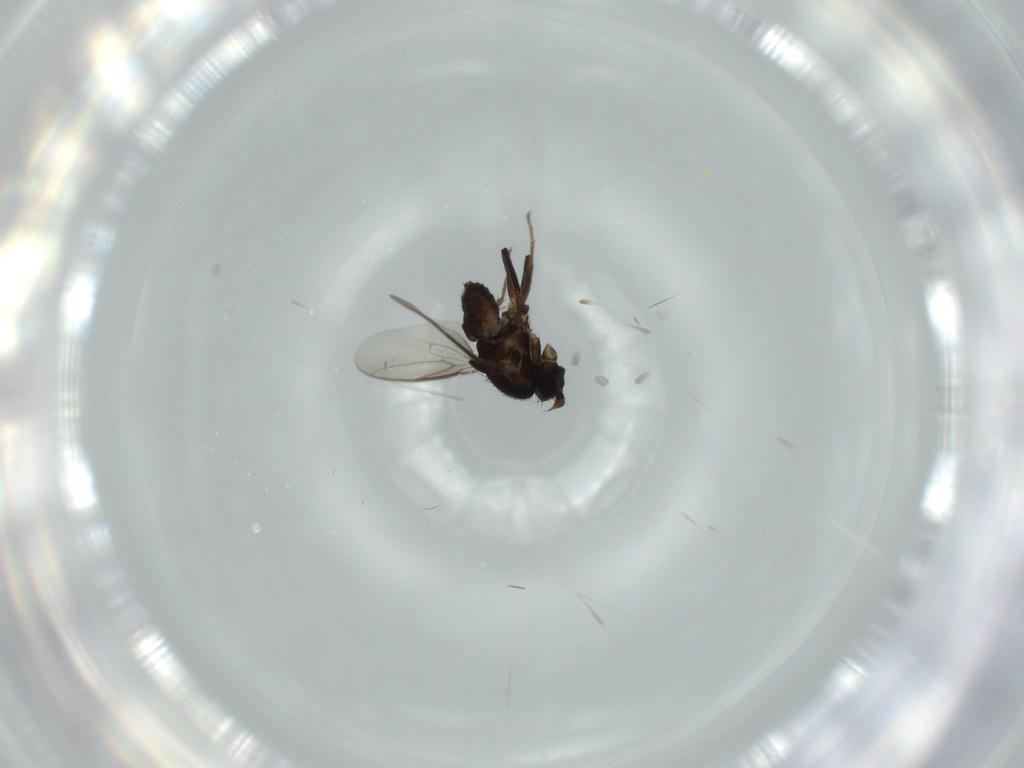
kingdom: Animalia
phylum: Arthropoda
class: Insecta
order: Diptera
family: Sphaeroceridae
